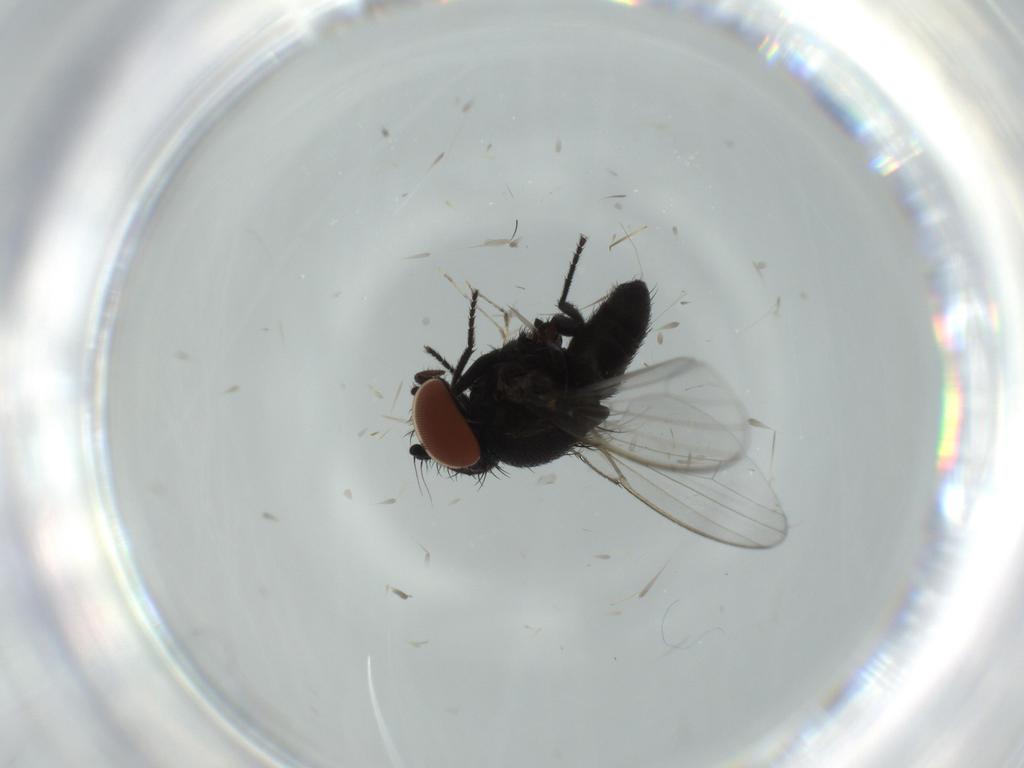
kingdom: Animalia
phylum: Arthropoda
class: Insecta
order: Diptera
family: Milichiidae
